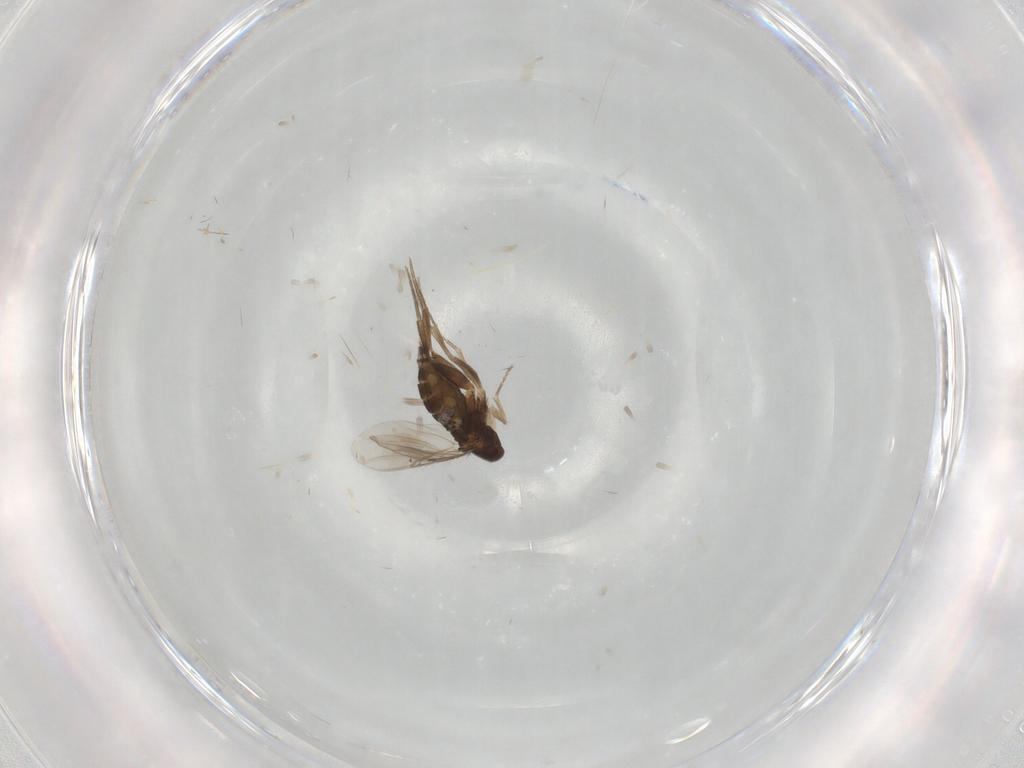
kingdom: Animalia
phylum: Arthropoda
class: Insecta
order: Diptera
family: Phoridae
